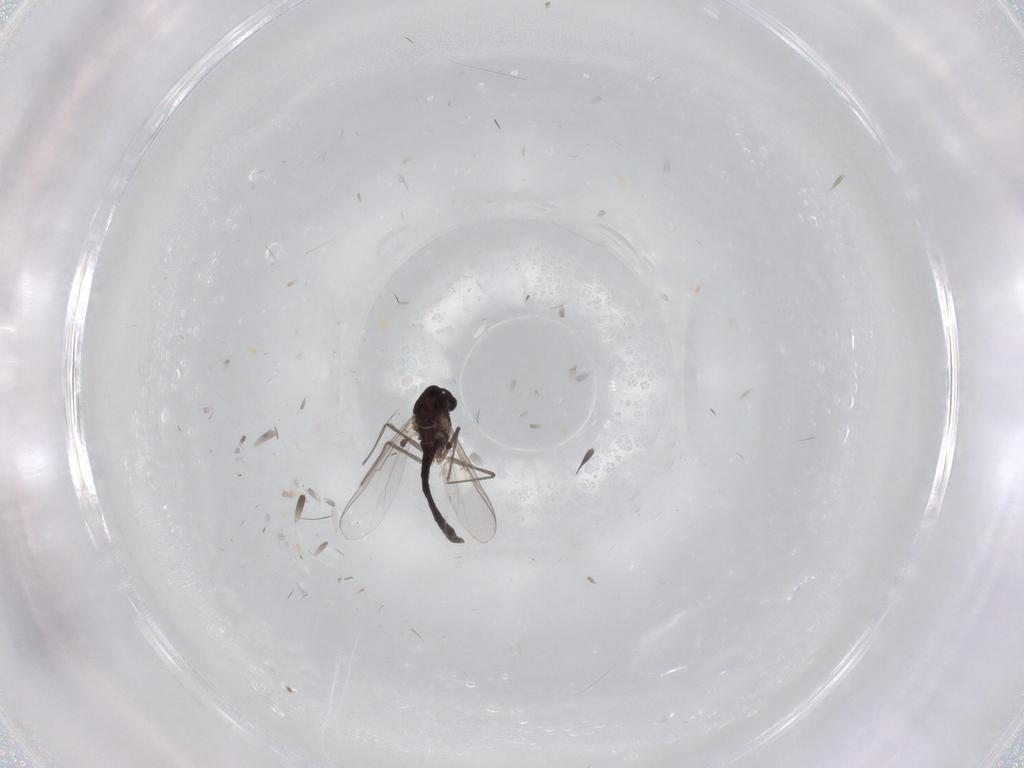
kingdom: Animalia
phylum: Arthropoda
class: Insecta
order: Diptera
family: Chironomidae
